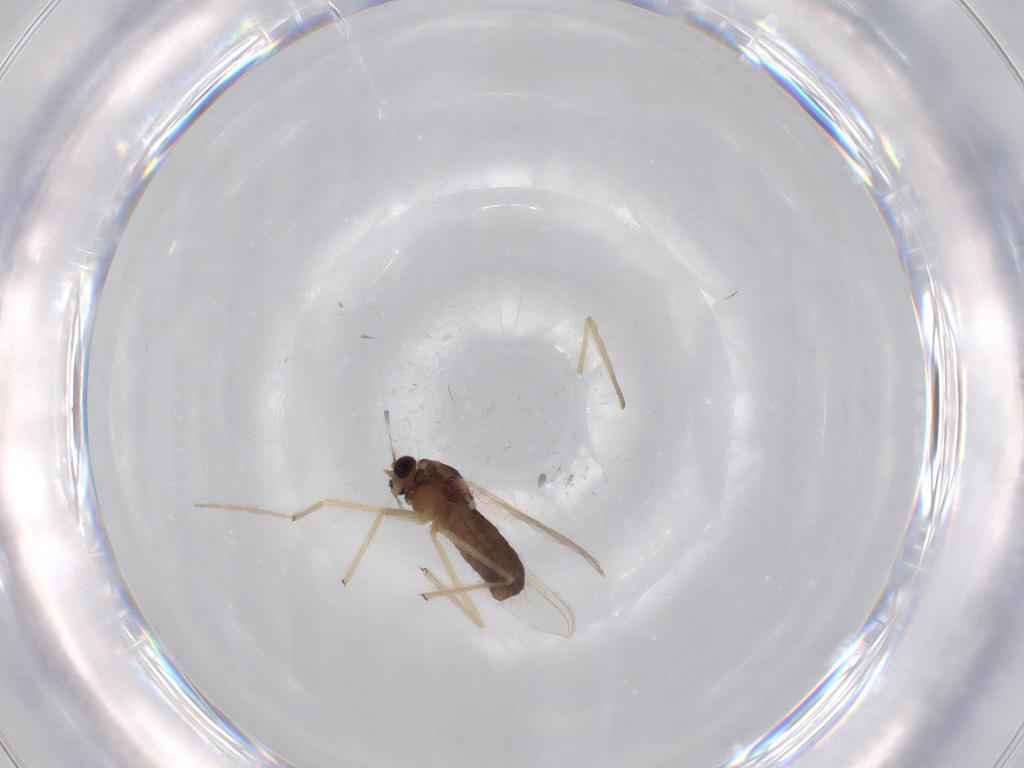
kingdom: Animalia
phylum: Arthropoda
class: Insecta
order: Diptera
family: Chironomidae
